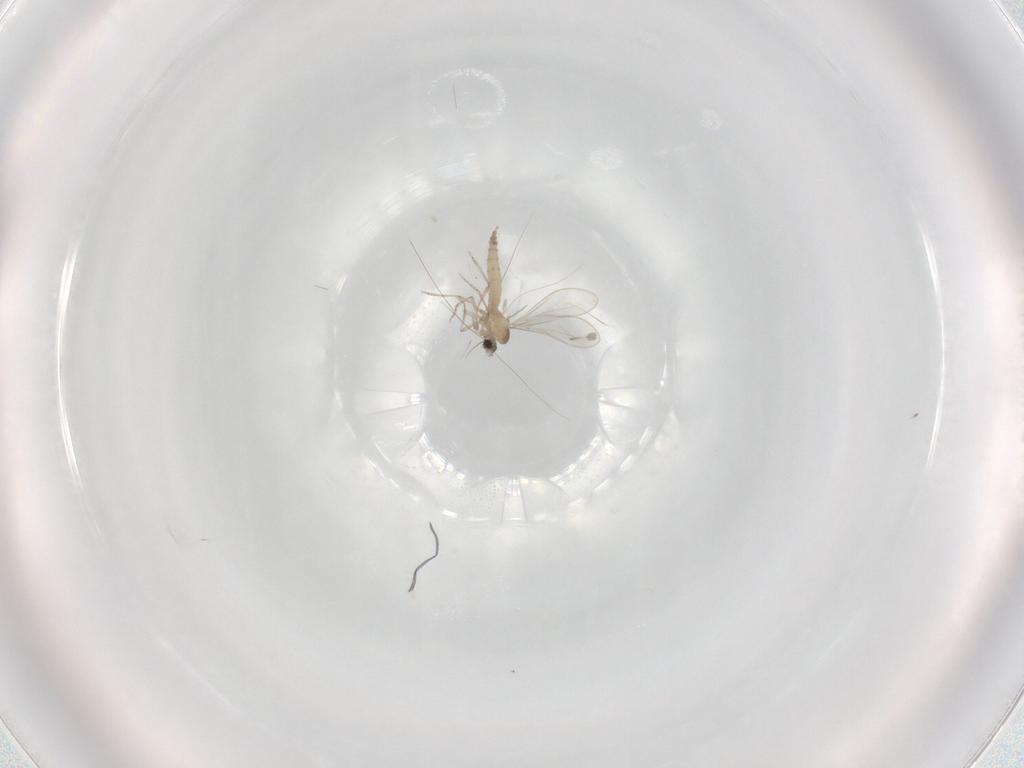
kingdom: Animalia
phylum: Arthropoda
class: Insecta
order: Diptera
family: Cecidomyiidae
